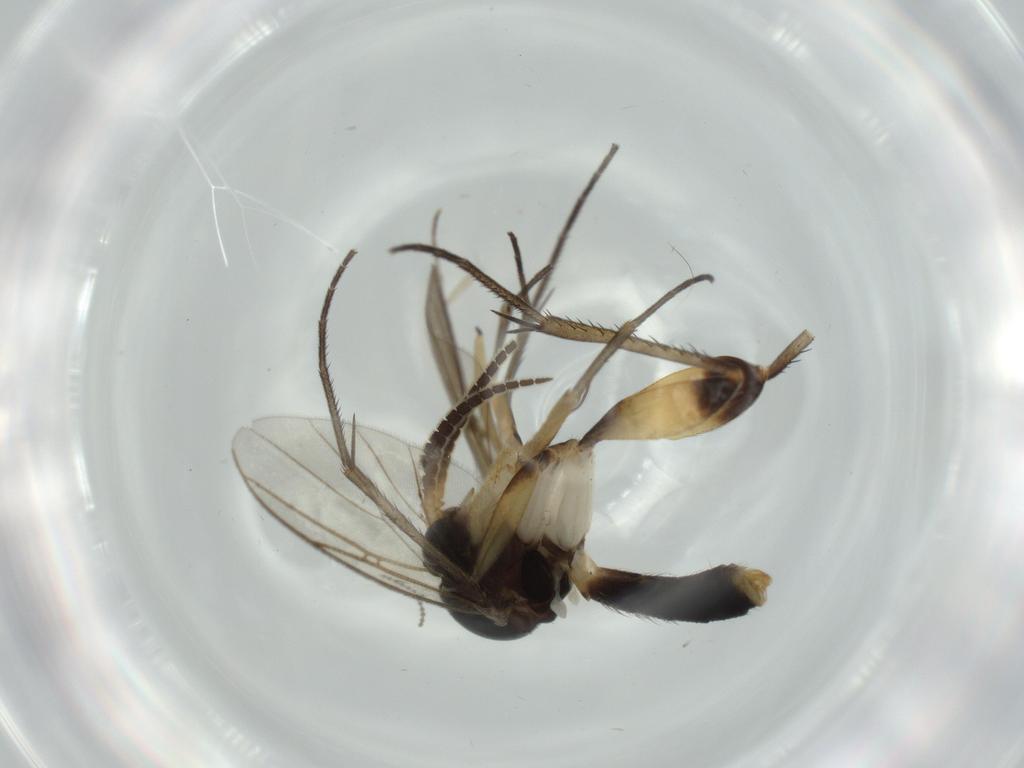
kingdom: Animalia
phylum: Arthropoda
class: Insecta
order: Diptera
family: Phoridae
